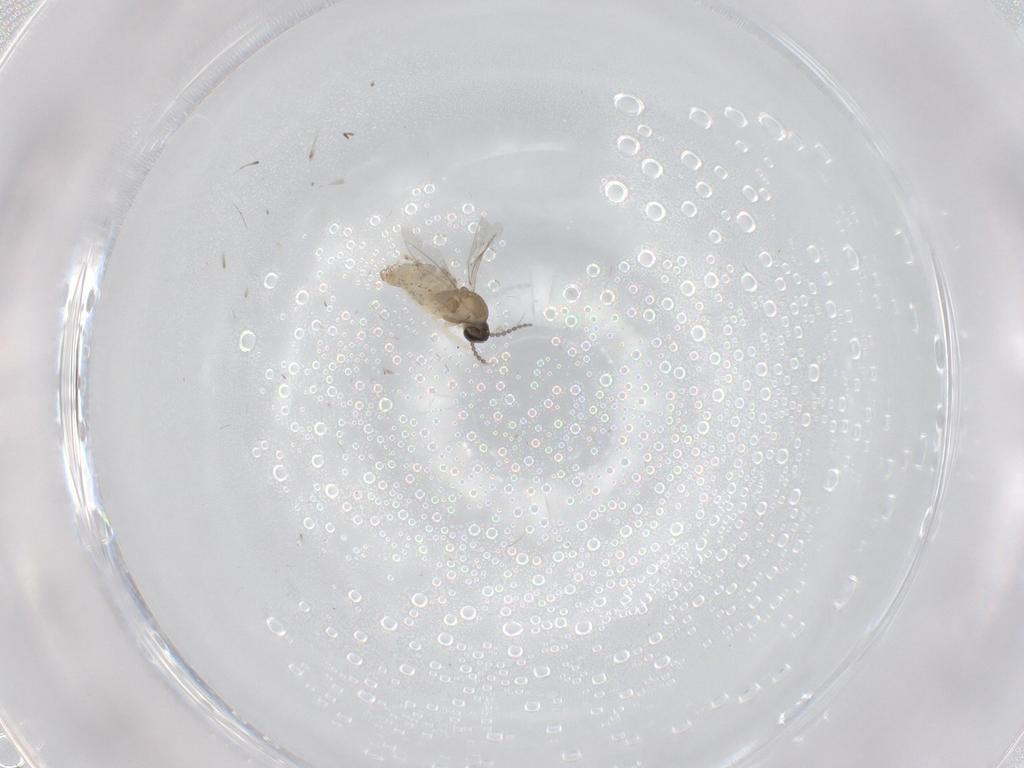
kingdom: Animalia
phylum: Arthropoda
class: Insecta
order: Diptera
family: Cecidomyiidae
